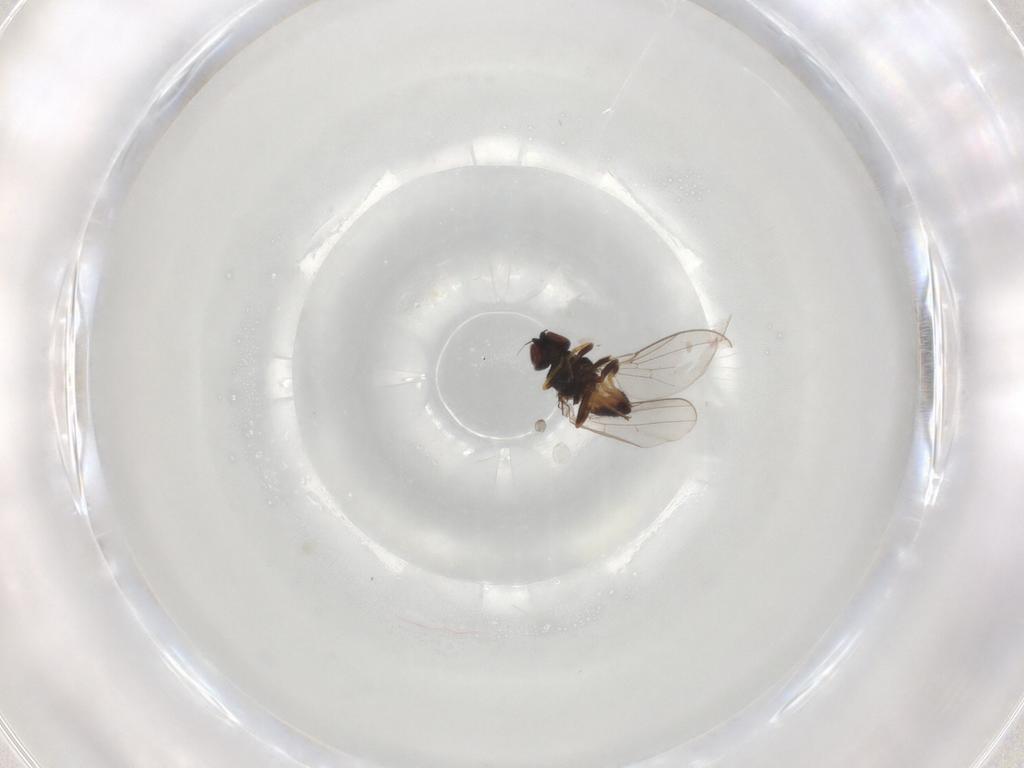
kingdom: Animalia
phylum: Arthropoda
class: Insecta
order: Diptera
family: Chloropidae
